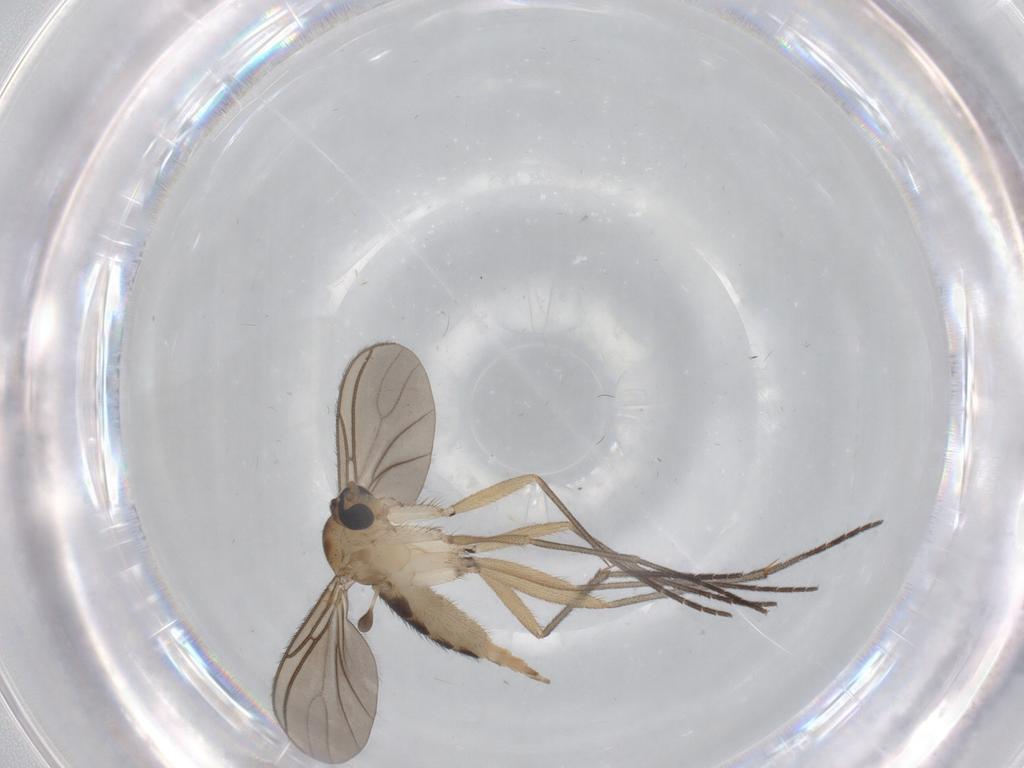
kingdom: Animalia
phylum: Arthropoda
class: Insecta
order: Diptera
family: Sciaridae
